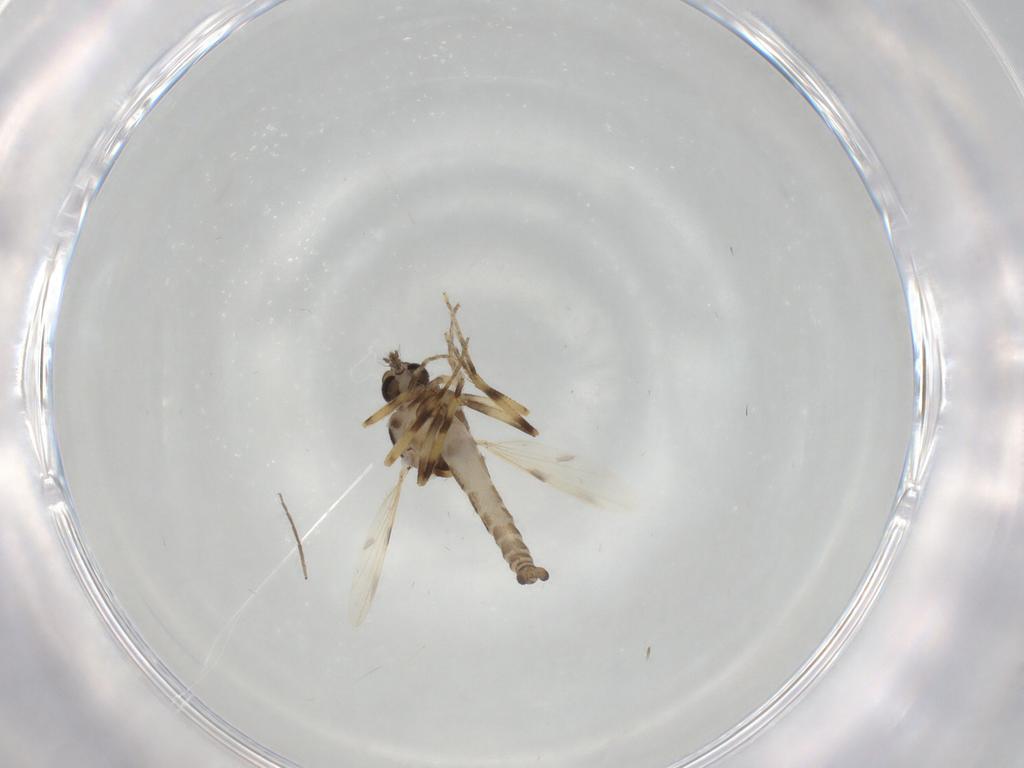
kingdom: Animalia
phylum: Arthropoda
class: Insecta
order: Diptera
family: Ceratopogonidae
